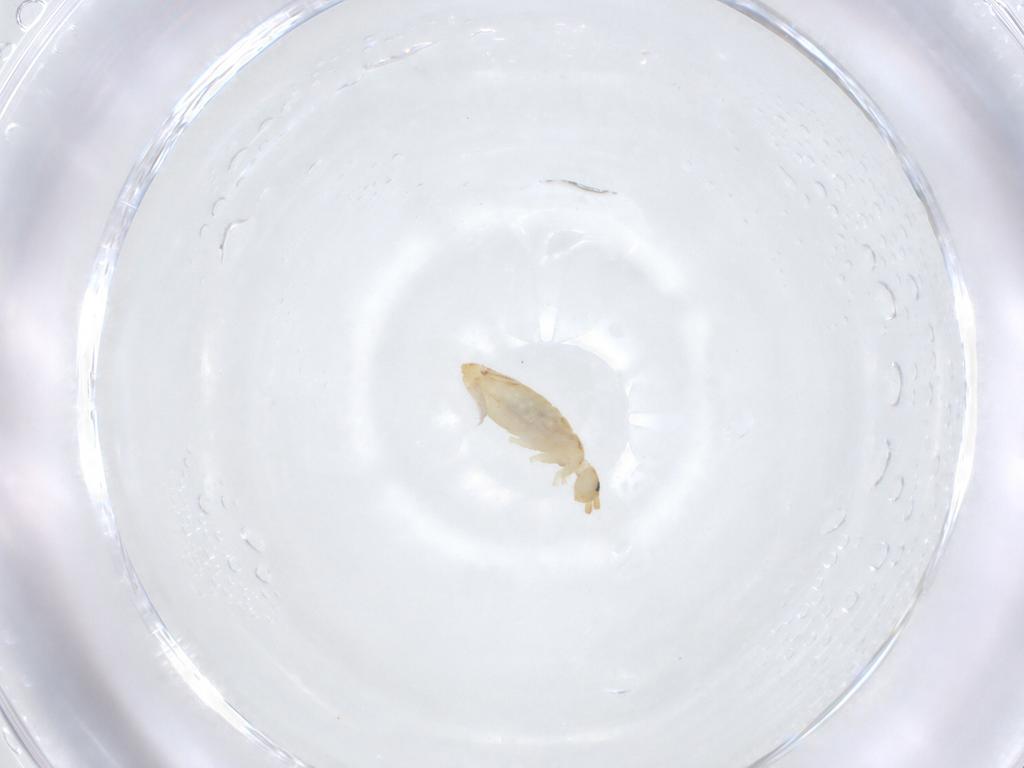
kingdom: Animalia
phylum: Arthropoda
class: Collembola
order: Entomobryomorpha
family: Entomobryidae
